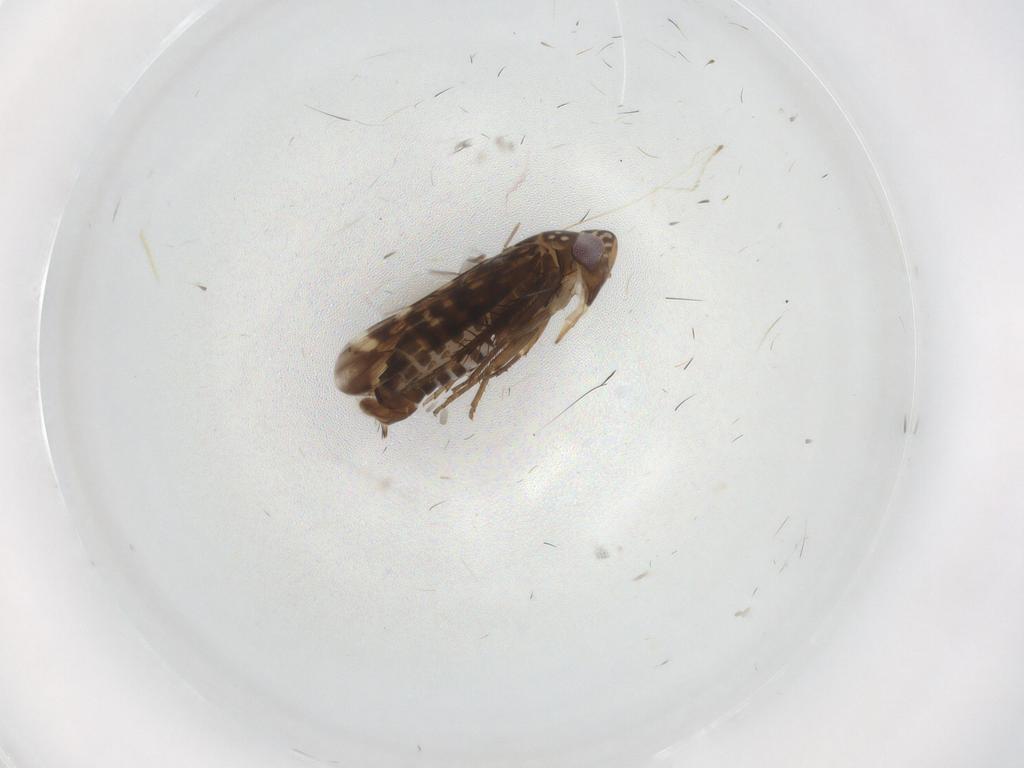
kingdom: Animalia
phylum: Arthropoda
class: Insecta
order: Hemiptera
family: Cicadellidae
